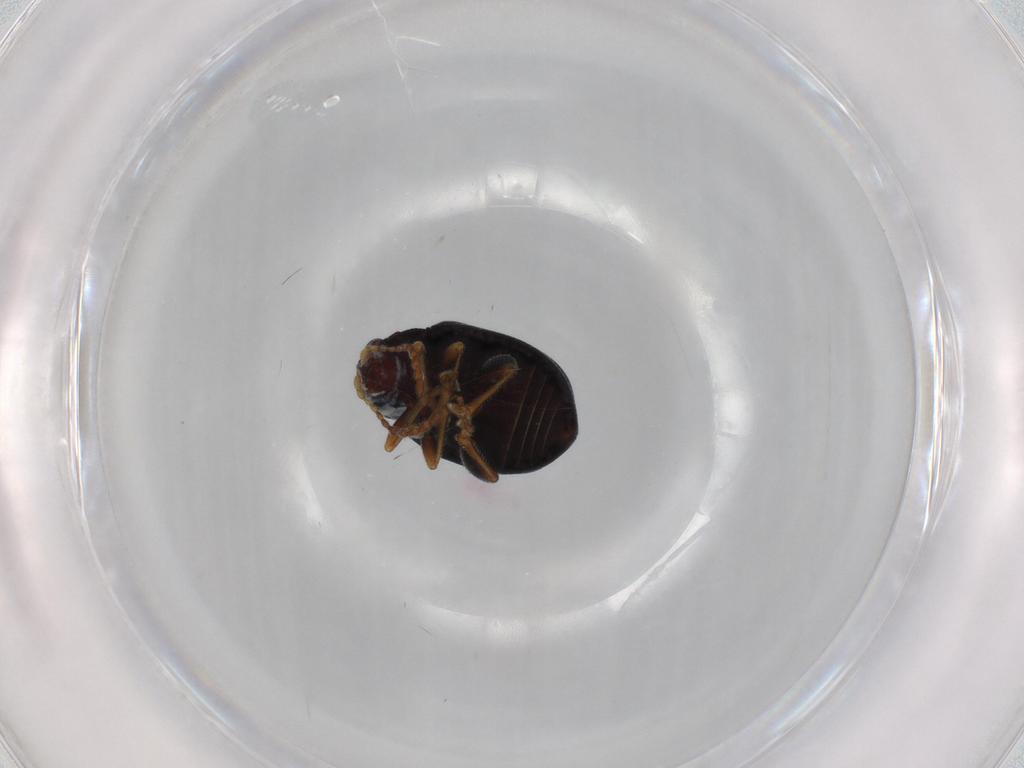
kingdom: Animalia
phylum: Arthropoda
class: Insecta
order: Coleoptera
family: Chrysomelidae
